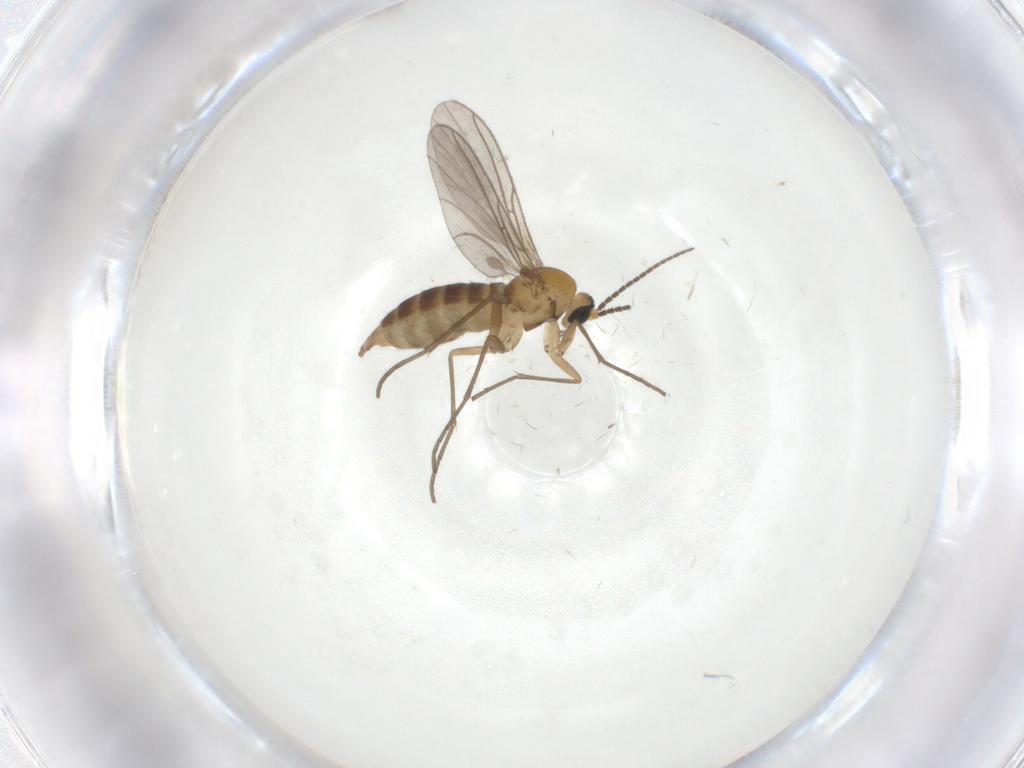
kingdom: Animalia
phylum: Arthropoda
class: Insecta
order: Diptera
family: Sciaridae
